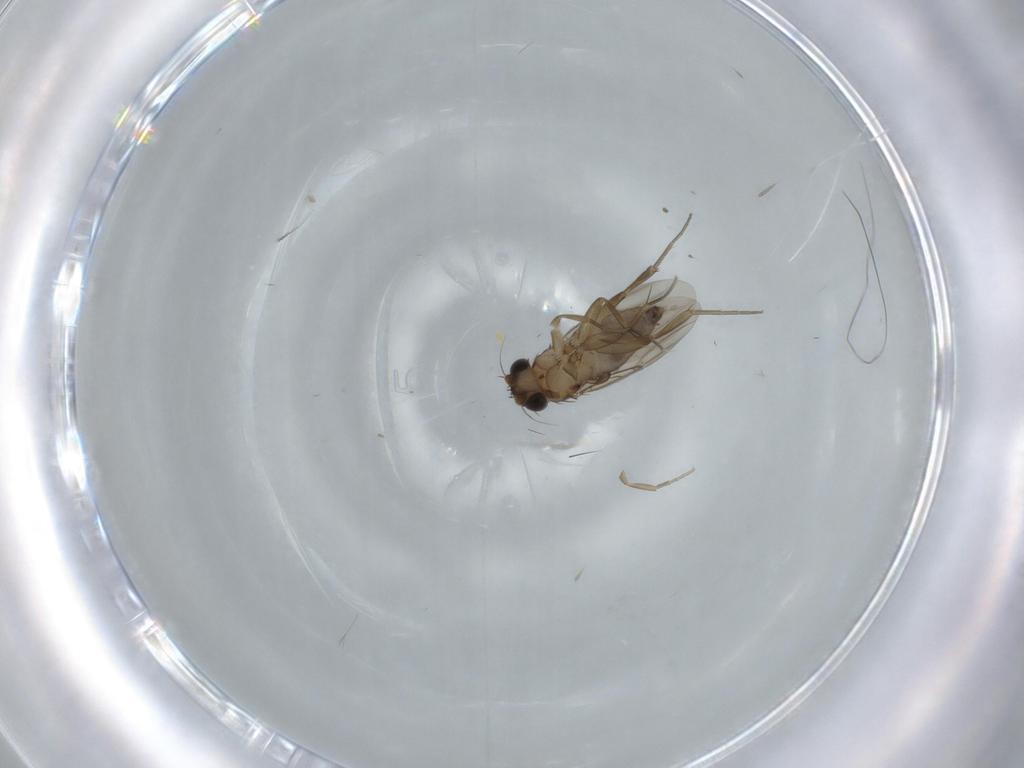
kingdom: Animalia
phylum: Arthropoda
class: Insecta
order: Diptera
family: Phoridae
